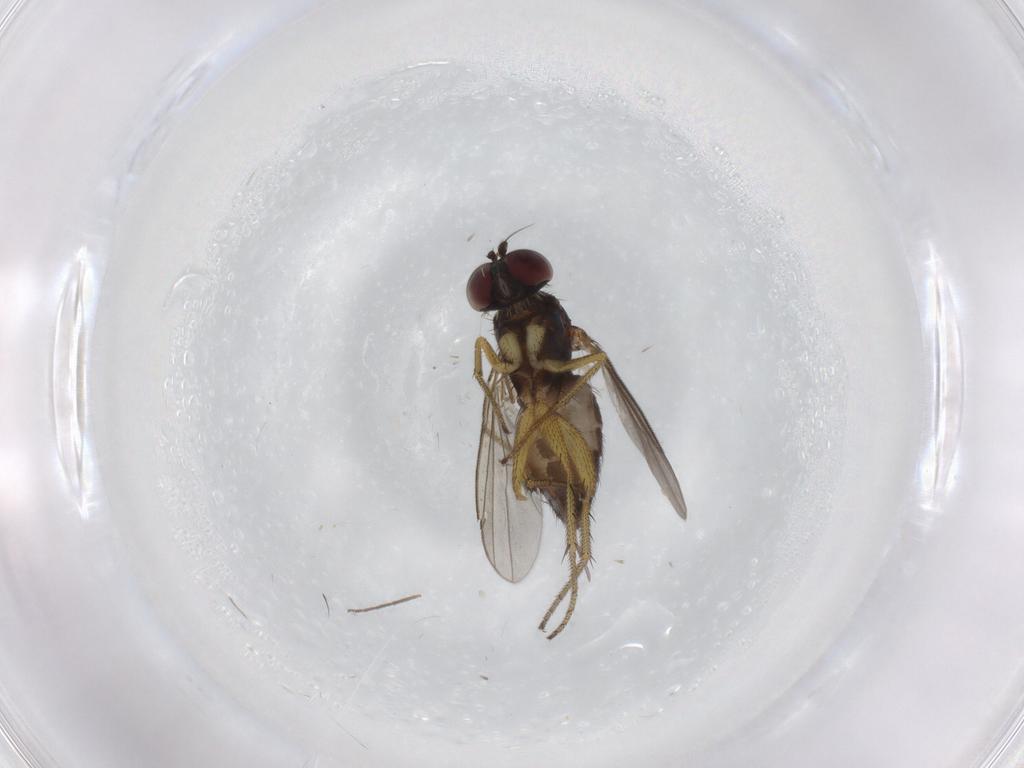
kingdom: Animalia
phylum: Arthropoda
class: Insecta
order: Diptera
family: Chironomidae
